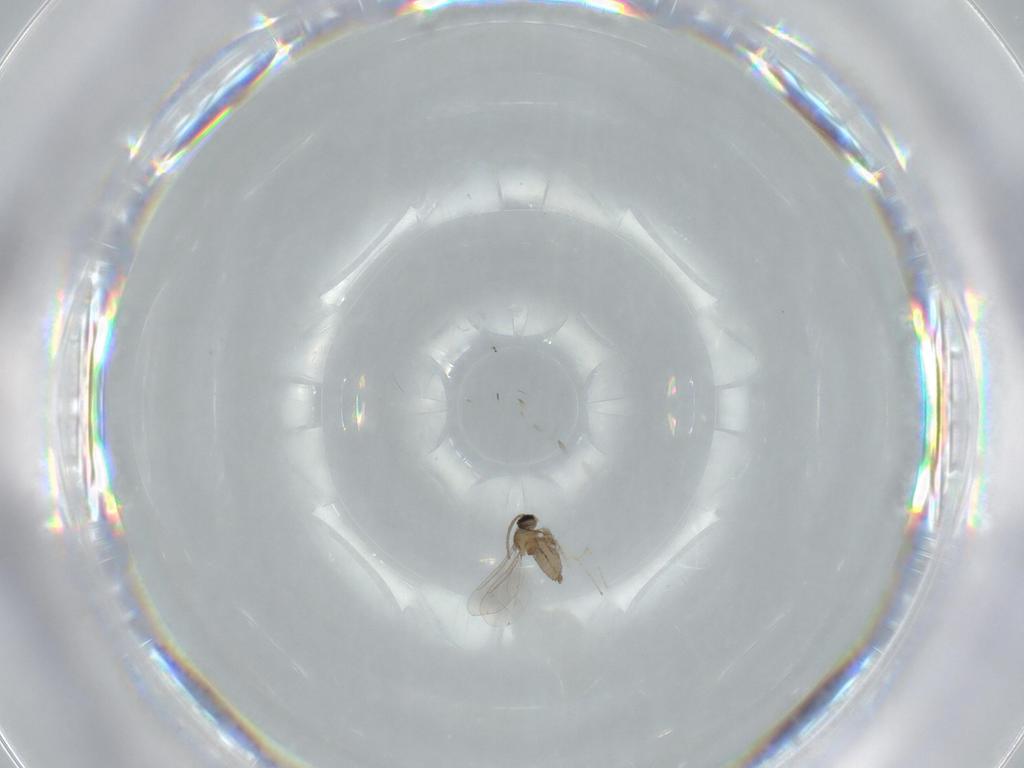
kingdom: Animalia
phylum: Arthropoda
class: Insecta
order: Diptera
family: Cecidomyiidae
